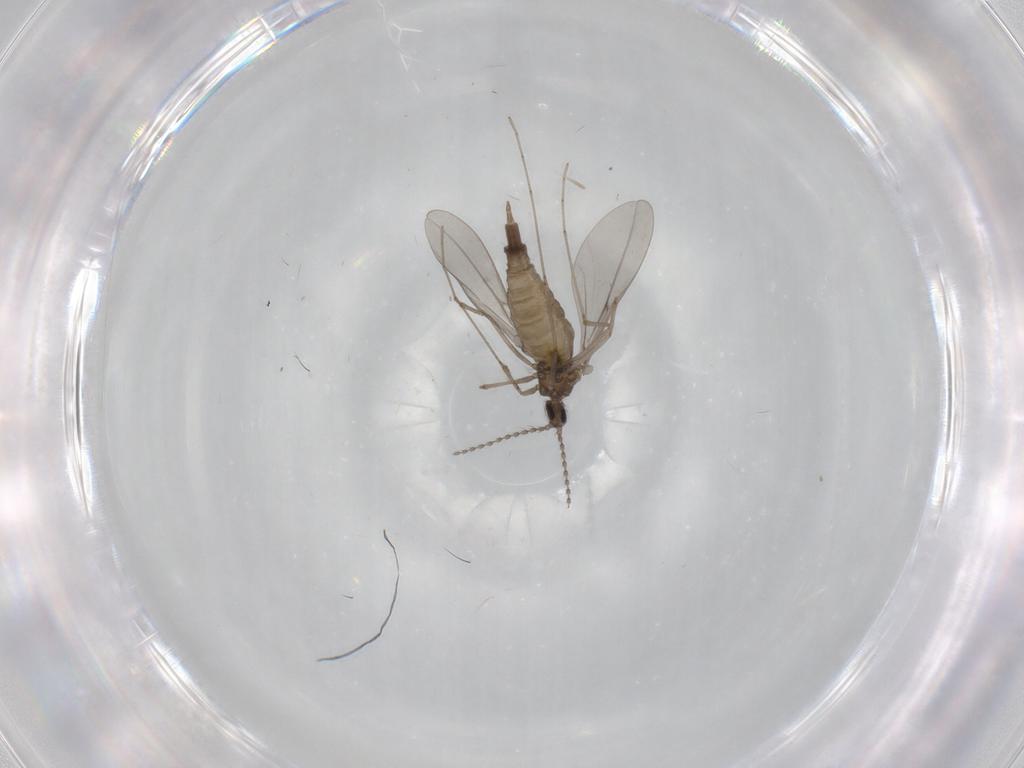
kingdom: Animalia
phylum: Arthropoda
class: Insecta
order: Diptera
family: Cecidomyiidae
